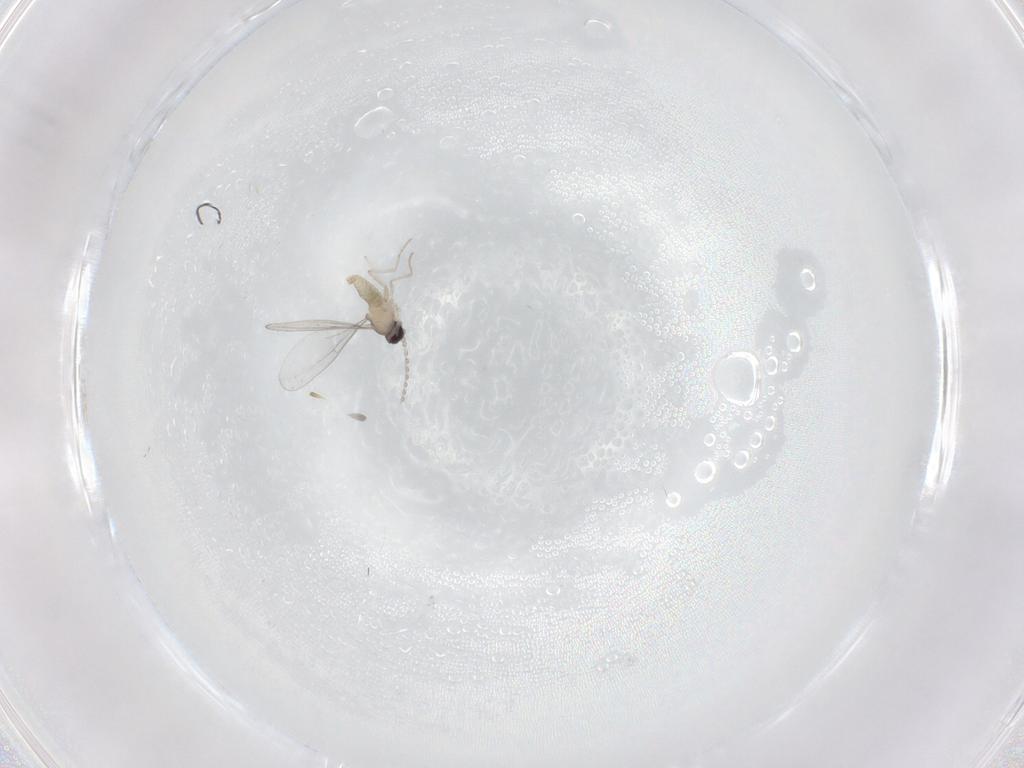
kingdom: Animalia
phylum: Arthropoda
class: Insecta
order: Diptera
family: Cecidomyiidae
